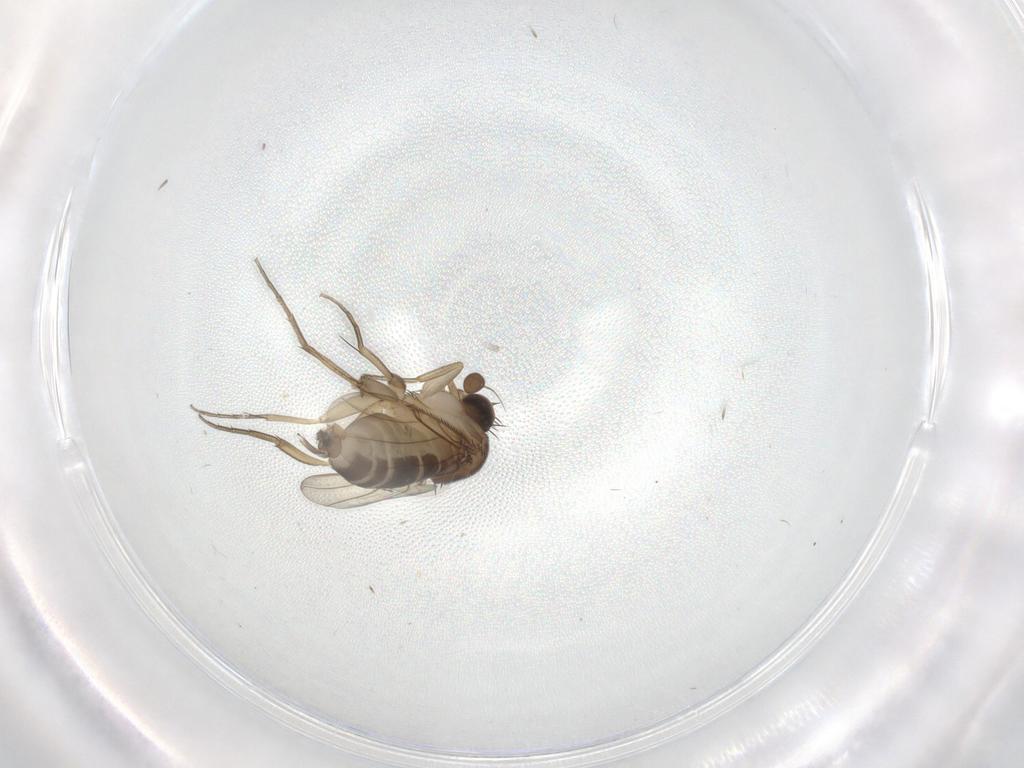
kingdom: Animalia
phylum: Arthropoda
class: Insecta
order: Diptera
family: Phoridae
